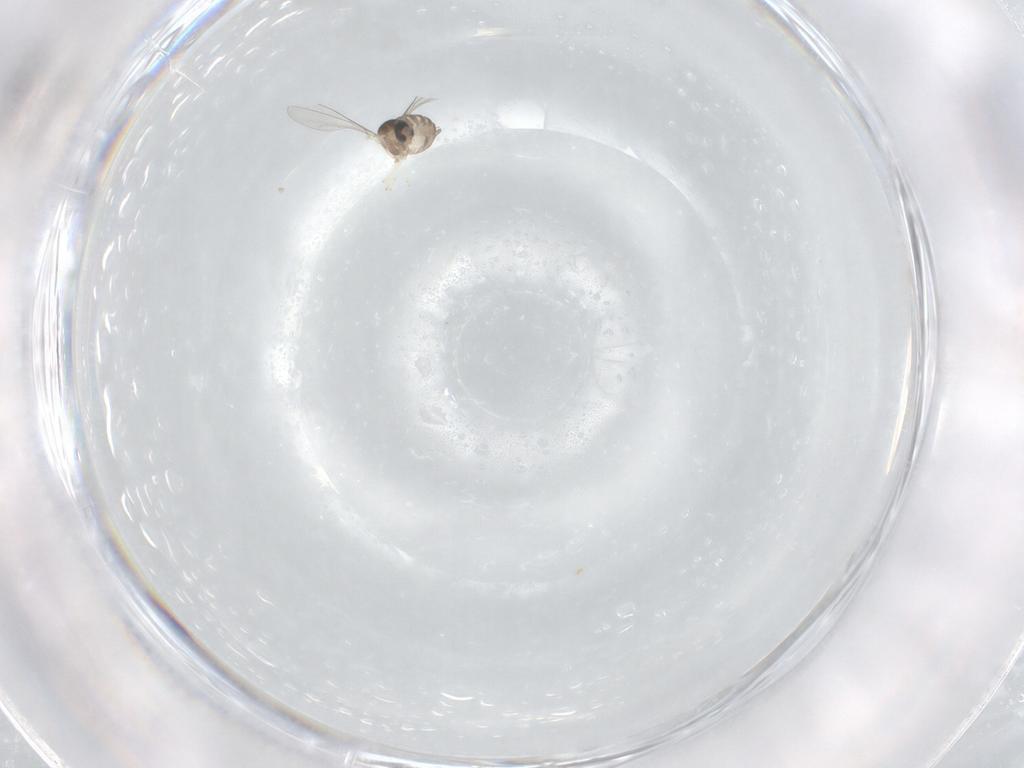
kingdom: Animalia
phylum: Arthropoda
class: Insecta
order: Diptera
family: Cecidomyiidae
